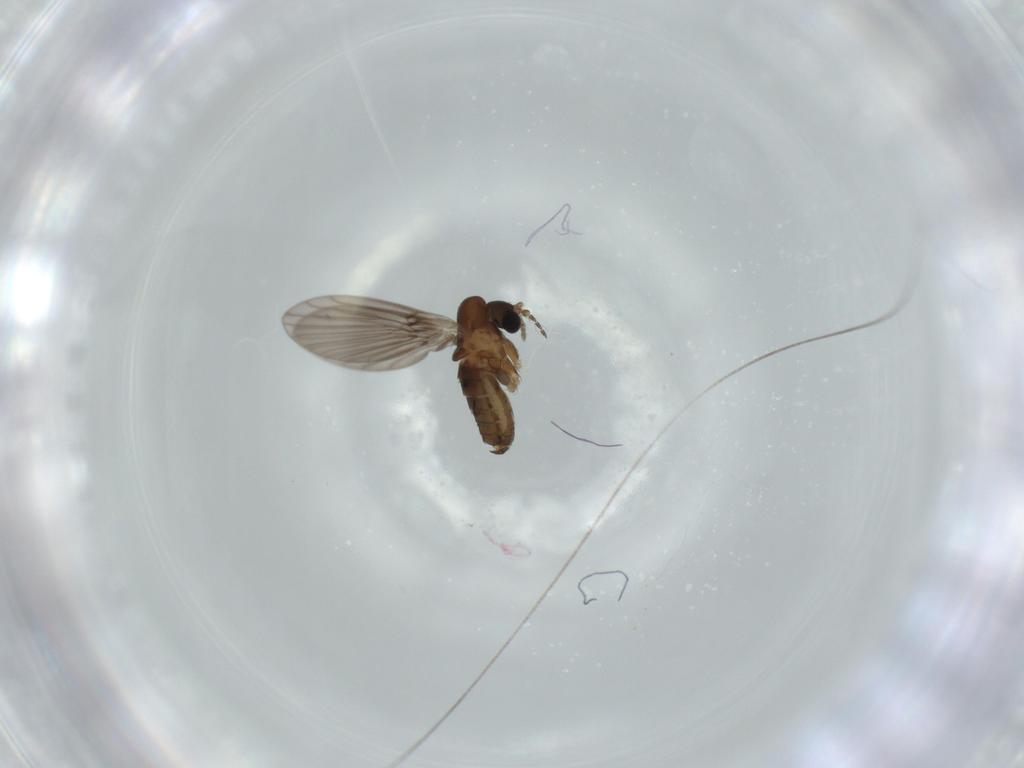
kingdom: Animalia
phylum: Arthropoda
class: Insecta
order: Diptera
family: Psychodidae
